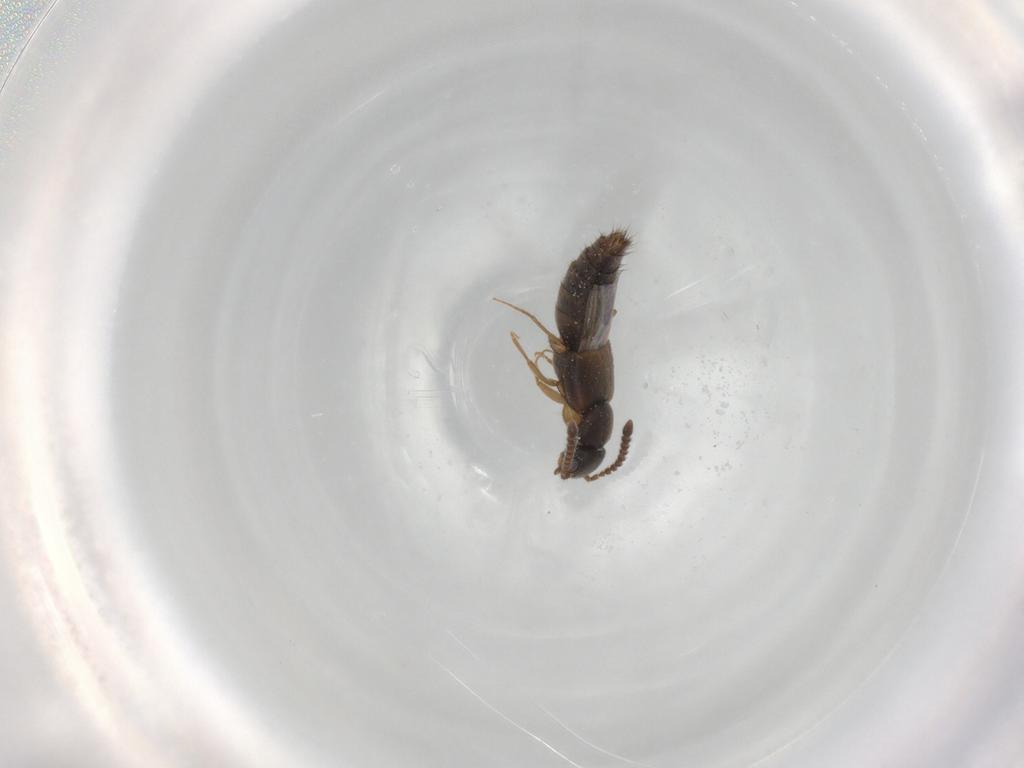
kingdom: Animalia
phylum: Arthropoda
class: Insecta
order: Coleoptera
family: Staphylinidae
